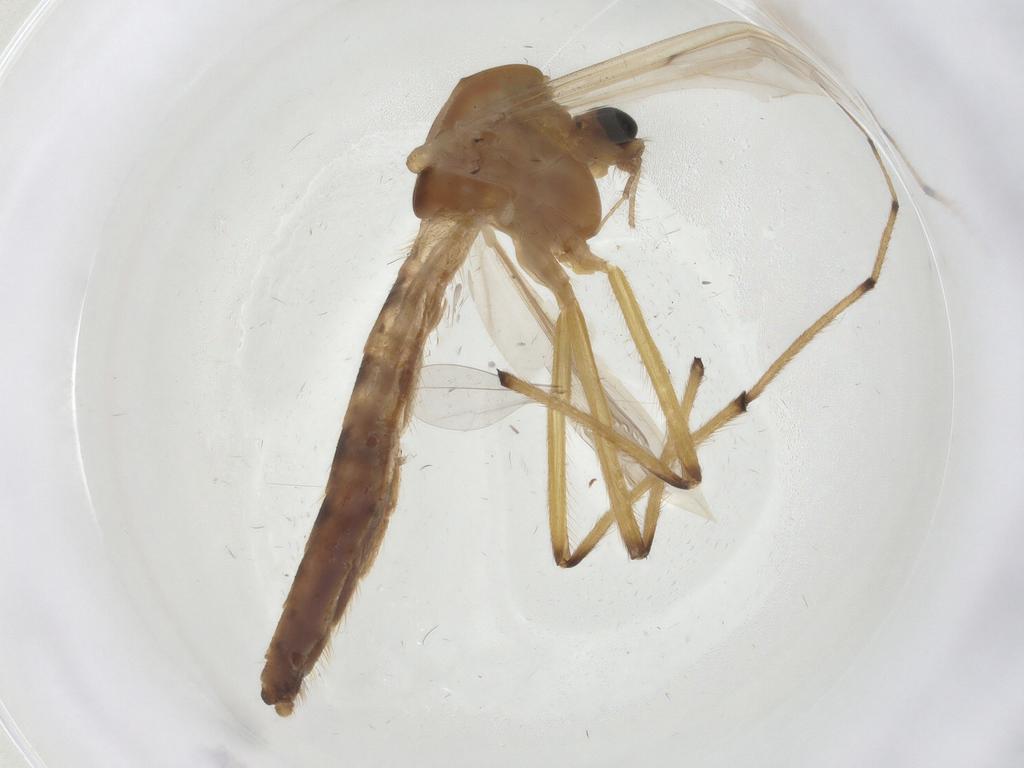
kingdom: Animalia
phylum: Arthropoda
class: Insecta
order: Diptera
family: Chironomidae
